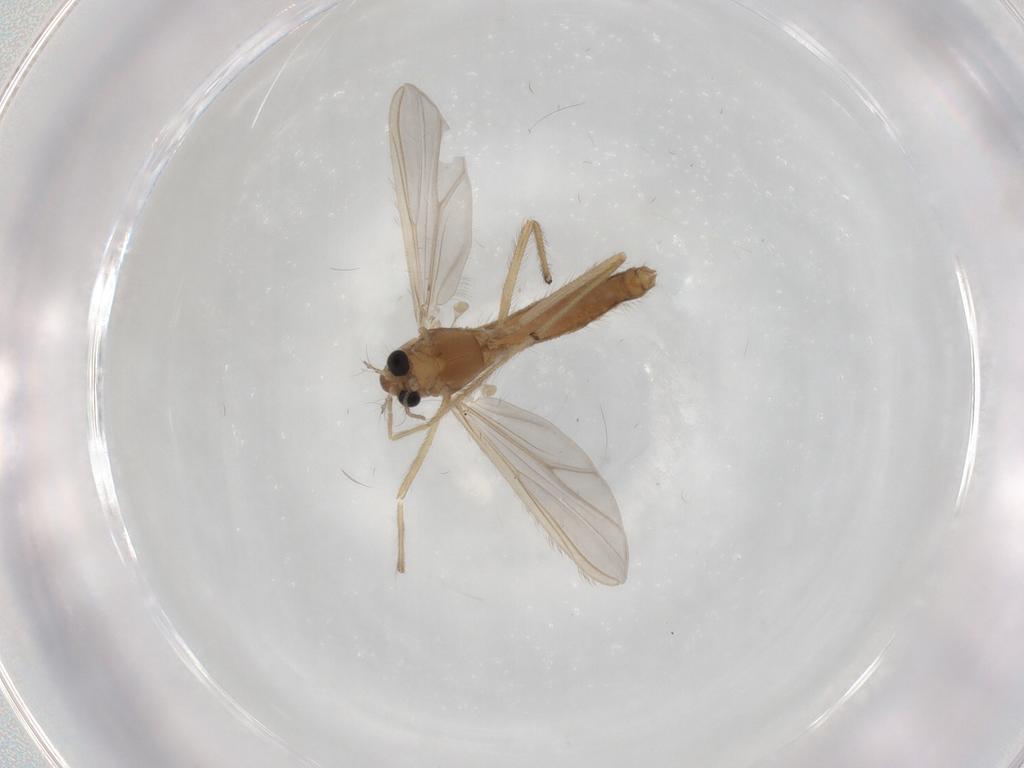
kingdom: Animalia
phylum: Arthropoda
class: Insecta
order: Diptera
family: Chironomidae
